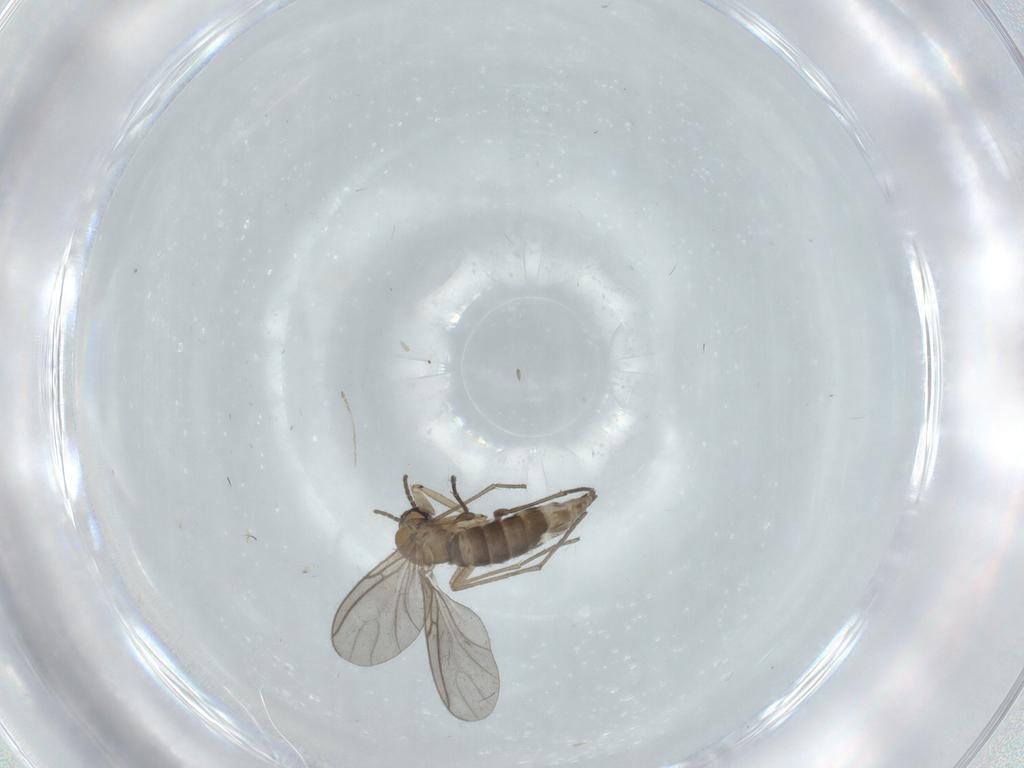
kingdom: Animalia
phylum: Arthropoda
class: Insecta
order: Diptera
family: Sciaridae
